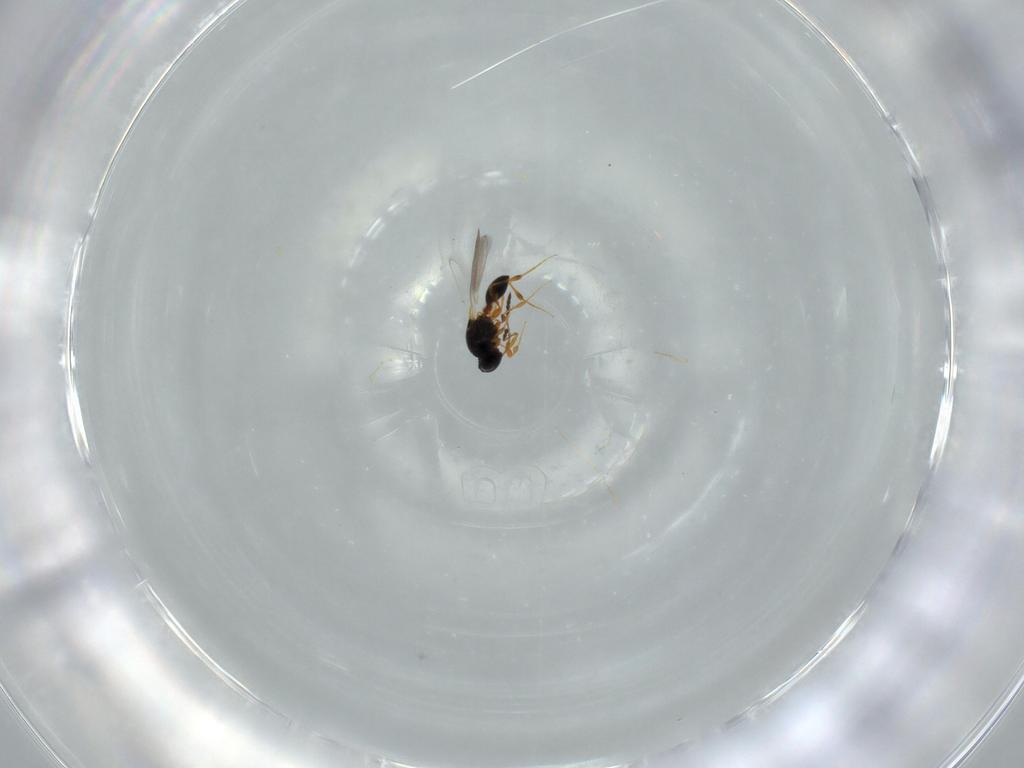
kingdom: Animalia
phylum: Arthropoda
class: Insecta
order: Hymenoptera
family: Platygastridae
